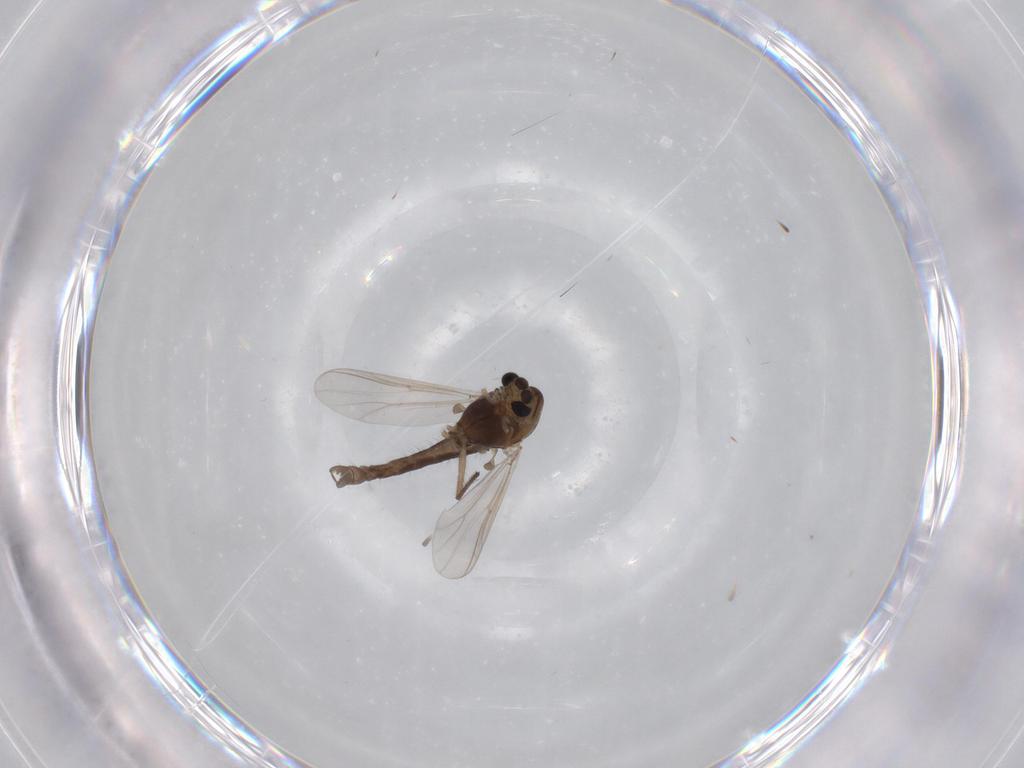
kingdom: Animalia
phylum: Arthropoda
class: Insecta
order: Diptera
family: Chironomidae
